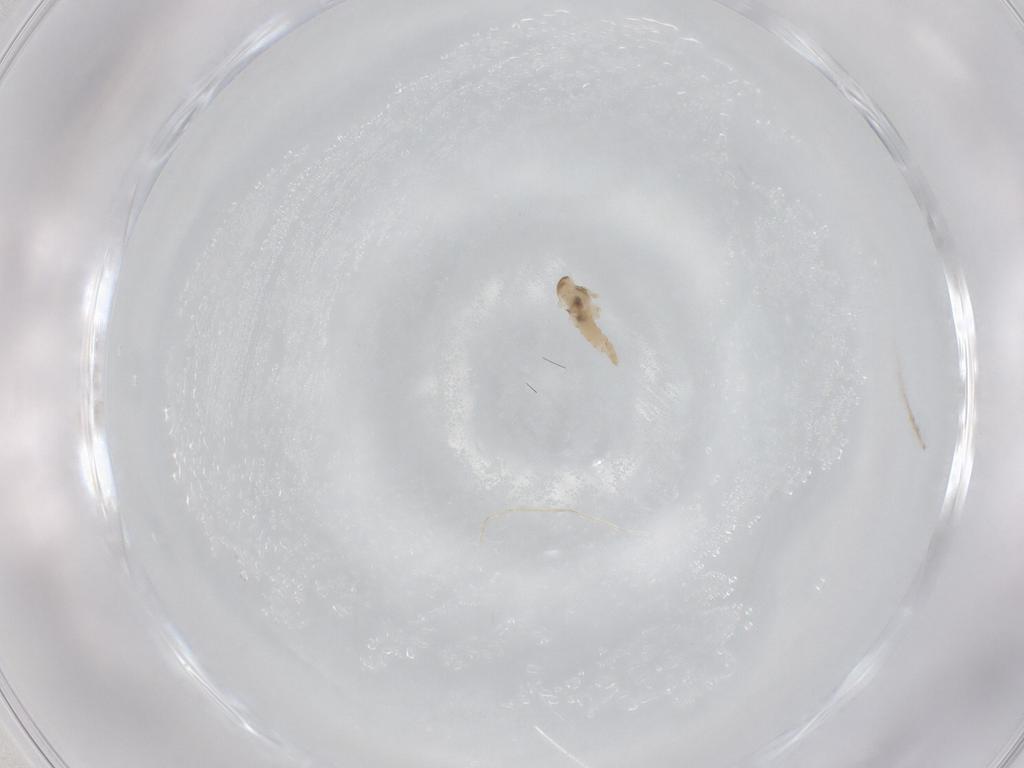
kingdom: Animalia
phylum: Arthropoda
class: Insecta
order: Diptera
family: Cecidomyiidae
